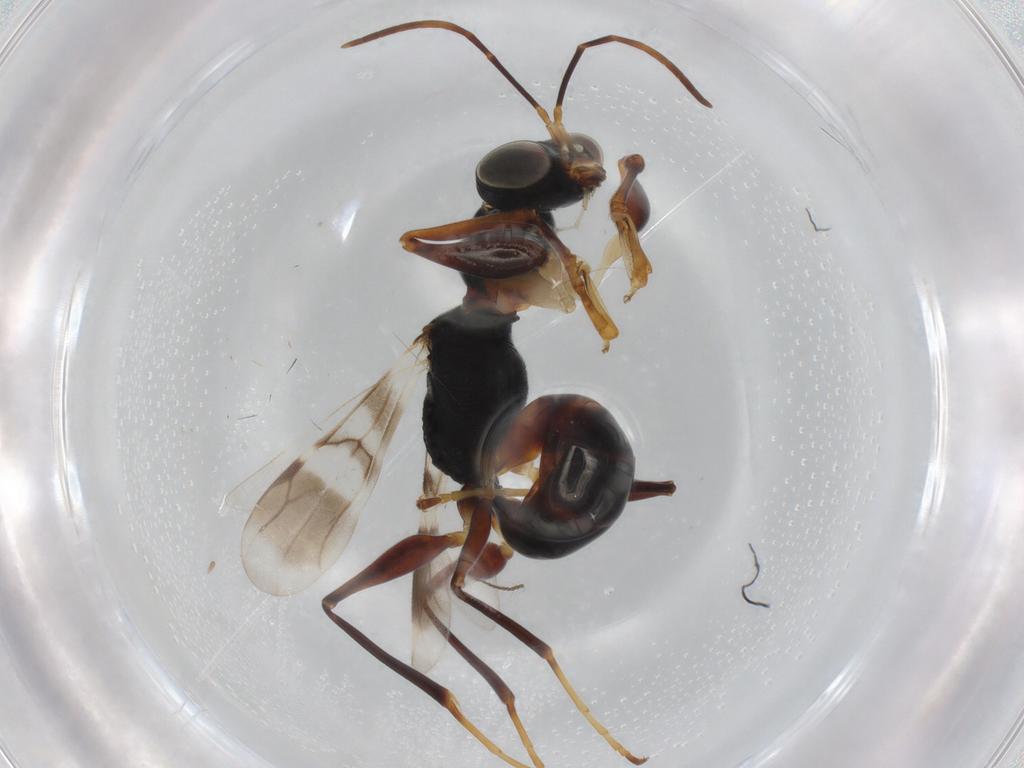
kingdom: Animalia
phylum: Arthropoda
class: Insecta
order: Hymenoptera
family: Dryinidae
